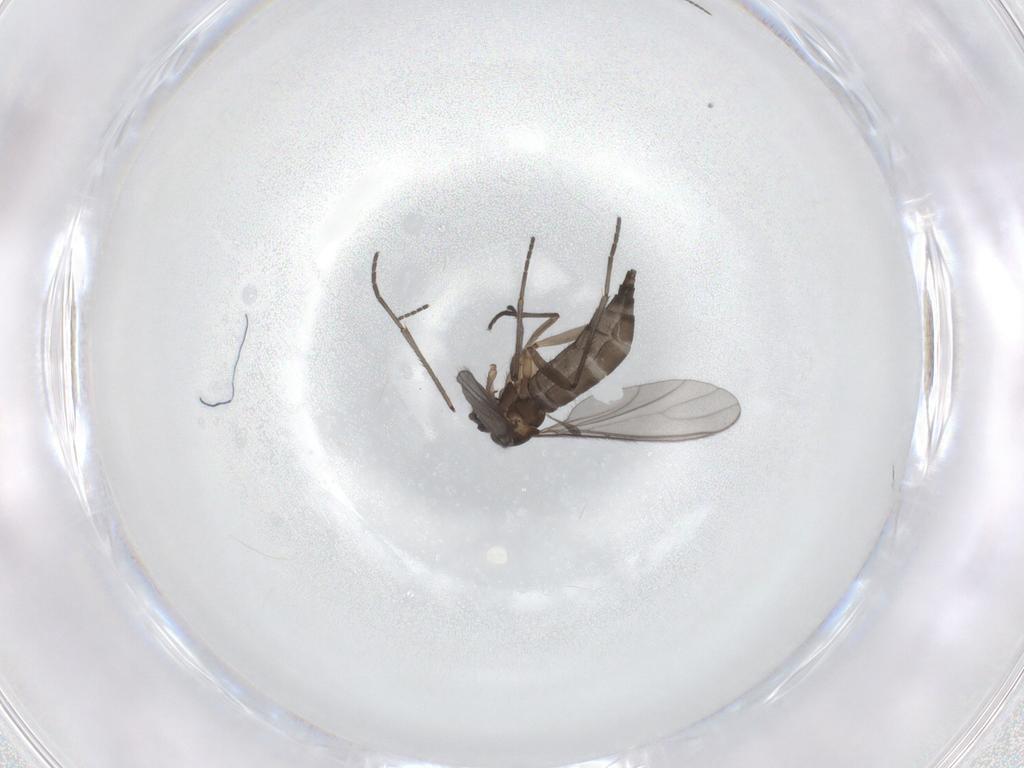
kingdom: Animalia
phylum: Arthropoda
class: Insecta
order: Diptera
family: Sciaridae
